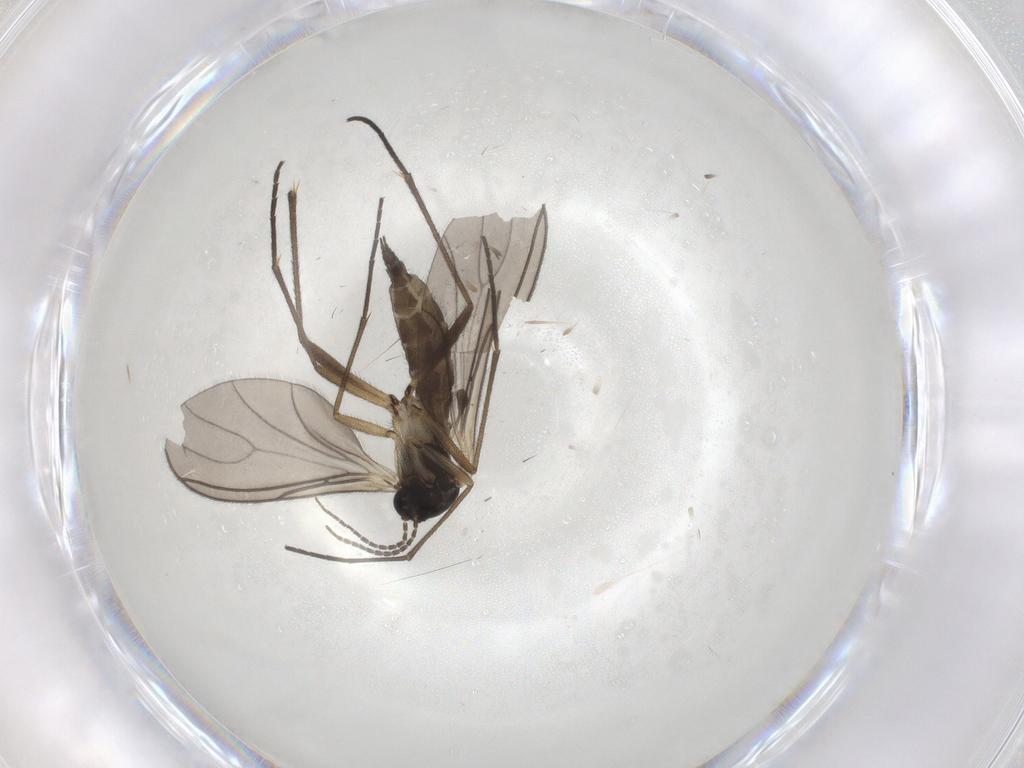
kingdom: Animalia
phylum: Arthropoda
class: Insecta
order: Diptera
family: Sciaridae
